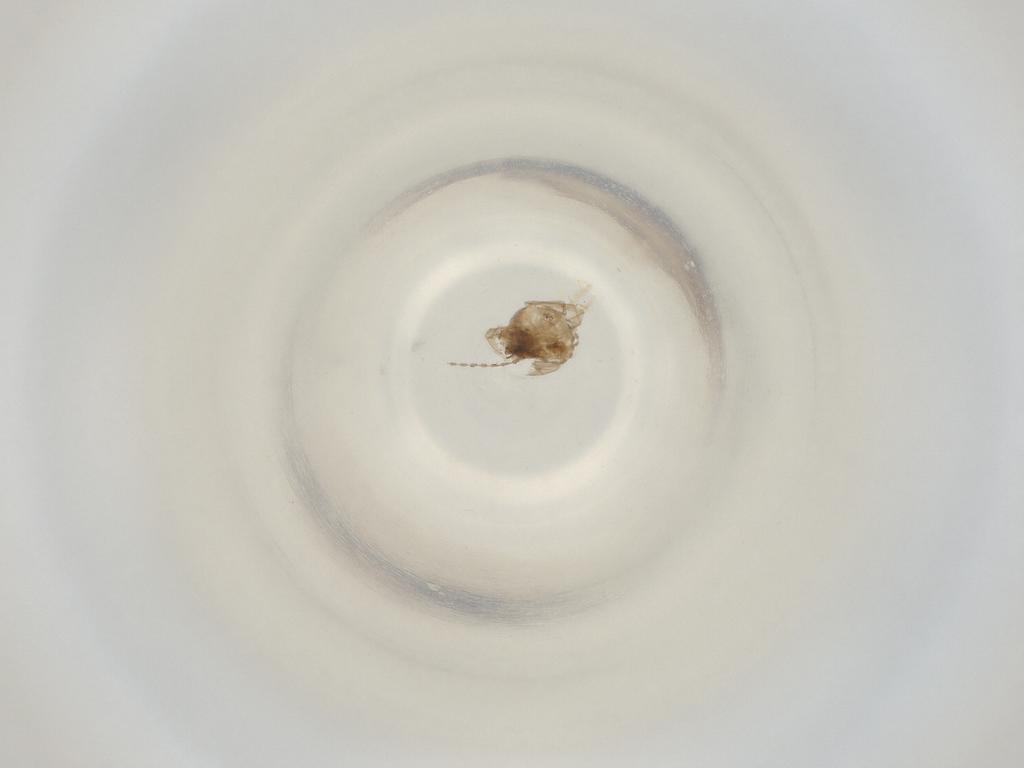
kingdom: Animalia
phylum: Arthropoda
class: Insecta
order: Diptera
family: Cecidomyiidae
